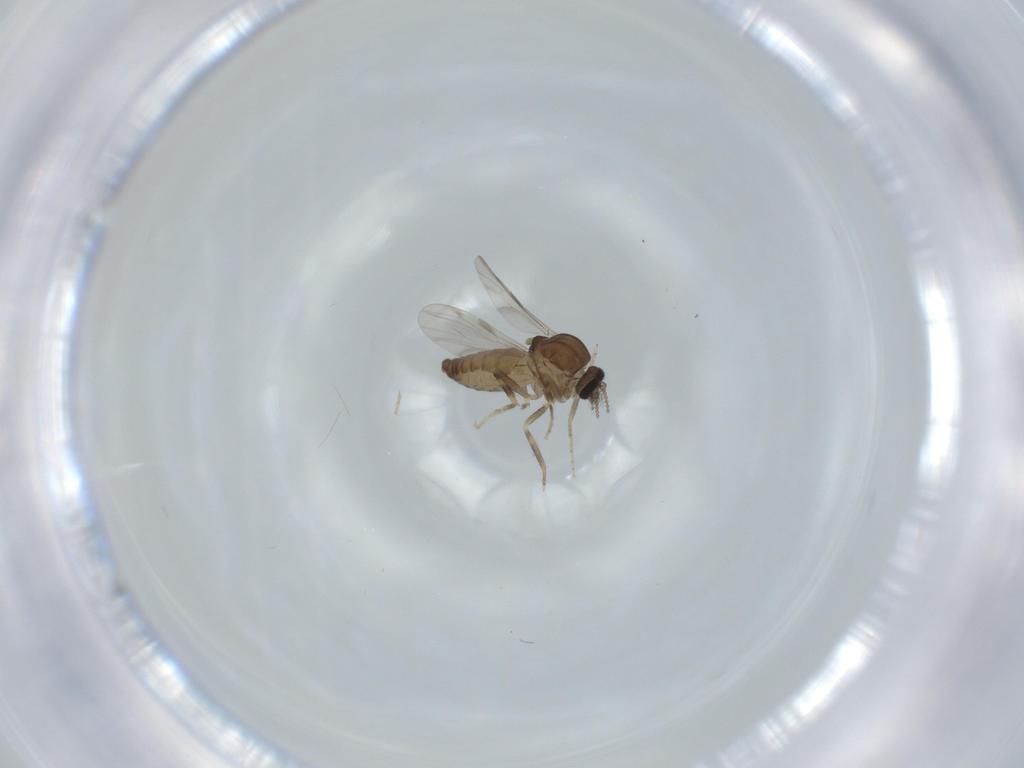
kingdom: Animalia
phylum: Arthropoda
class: Insecta
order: Diptera
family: Ceratopogonidae
